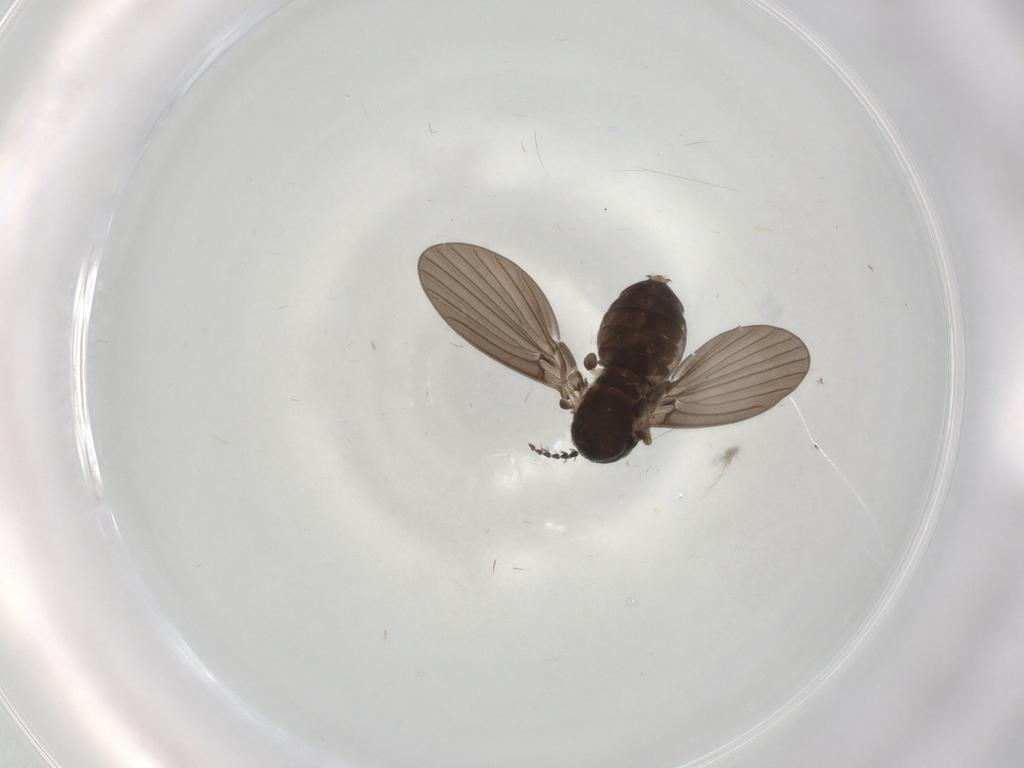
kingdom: Animalia
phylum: Arthropoda
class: Insecta
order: Diptera
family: Psychodidae
